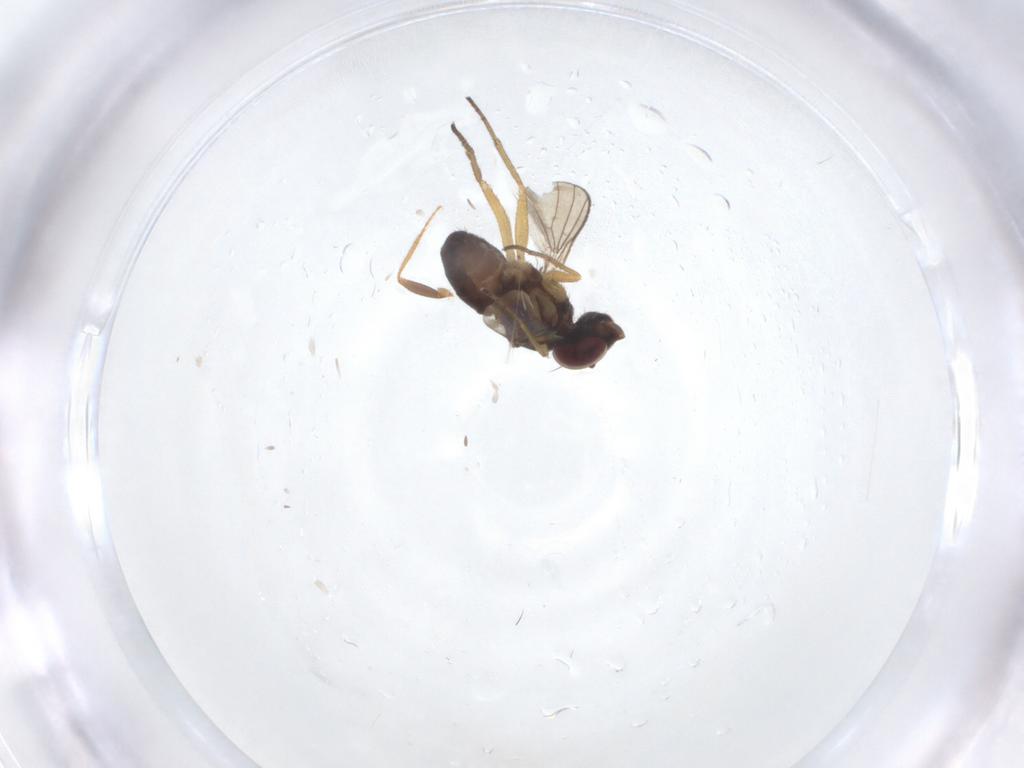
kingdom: Animalia
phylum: Arthropoda
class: Insecta
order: Diptera
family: Dolichopodidae
